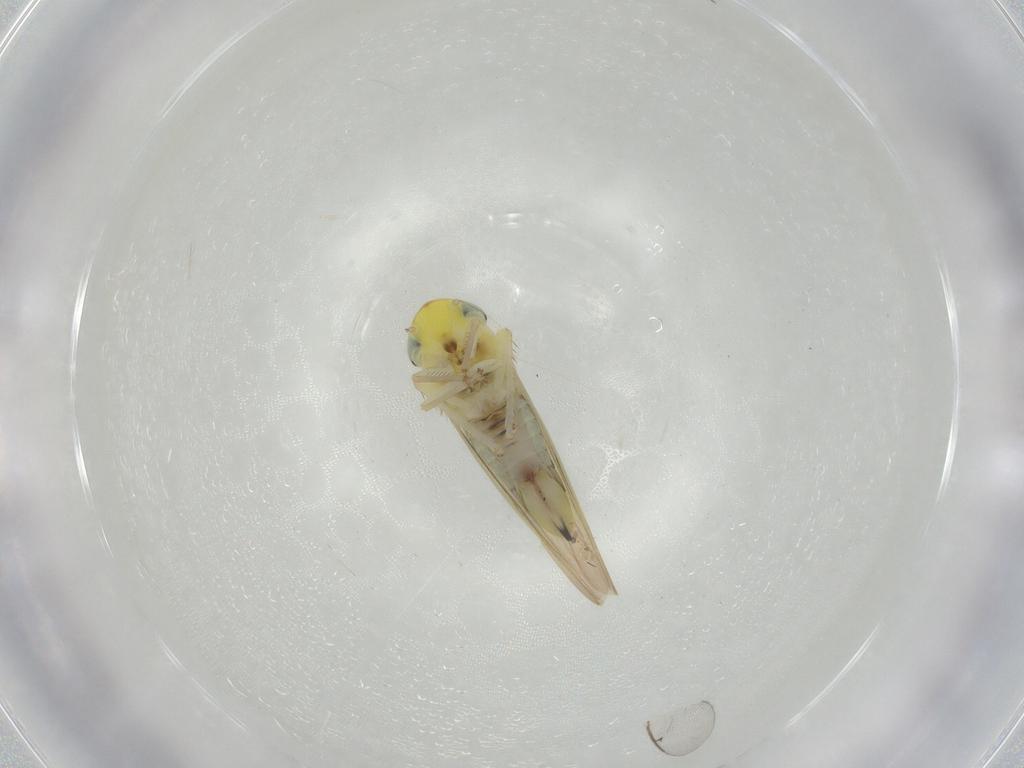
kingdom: Animalia
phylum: Arthropoda
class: Insecta
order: Hemiptera
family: Cicadellidae
